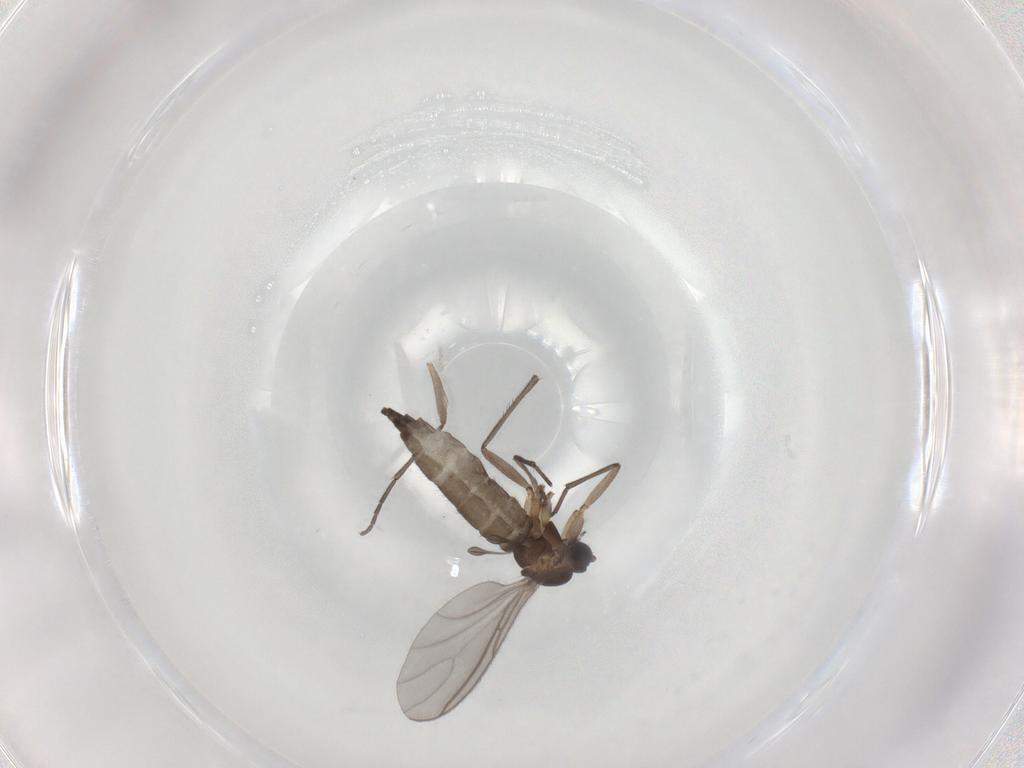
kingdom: Animalia
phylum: Arthropoda
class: Insecta
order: Diptera
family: Sciaridae
